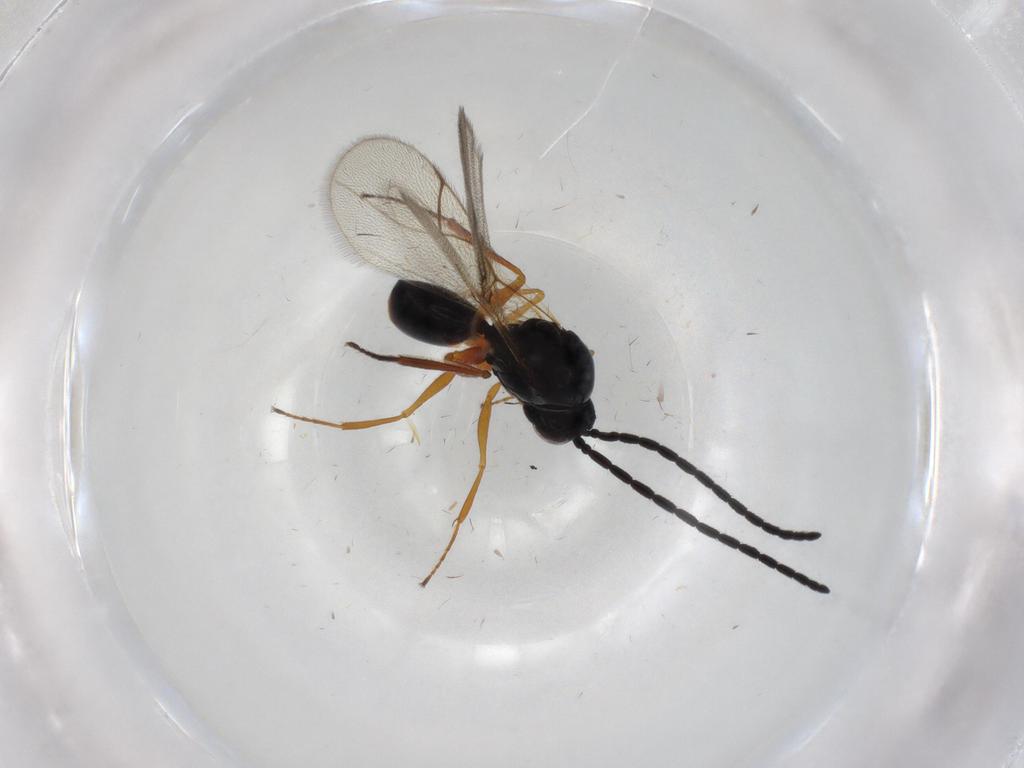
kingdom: Animalia
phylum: Arthropoda
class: Insecta
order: Hymenoptera
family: Figitidae
